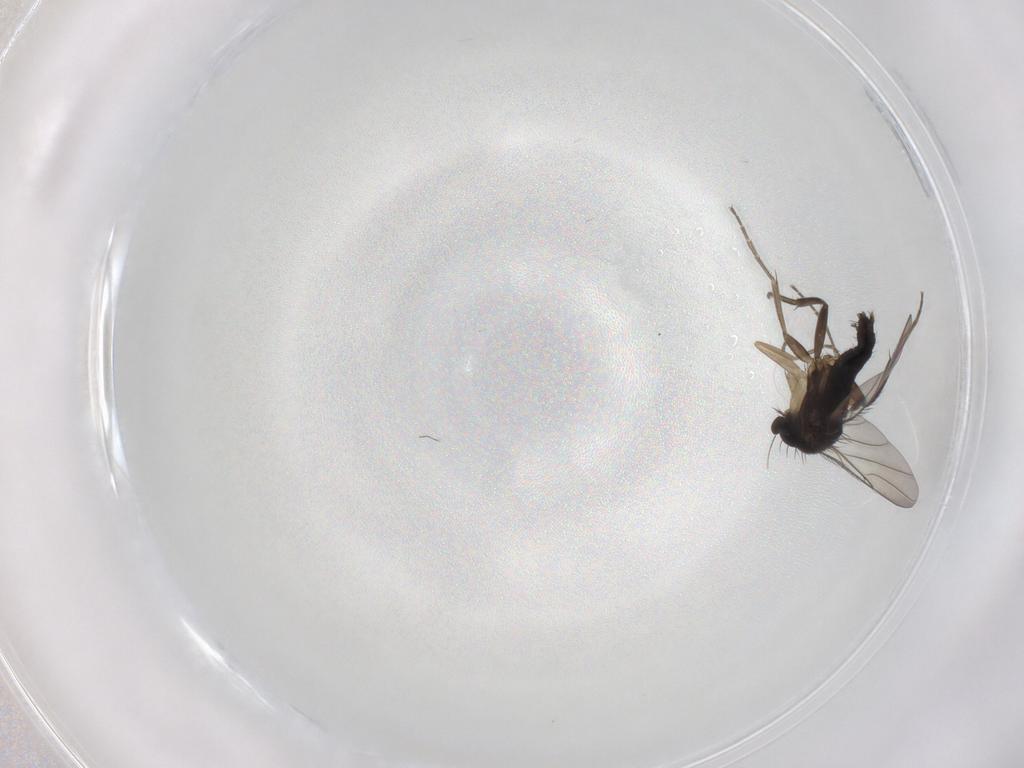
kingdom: Animalia
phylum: Arthropoda
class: Insecta
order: Diptera
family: Phoridae
